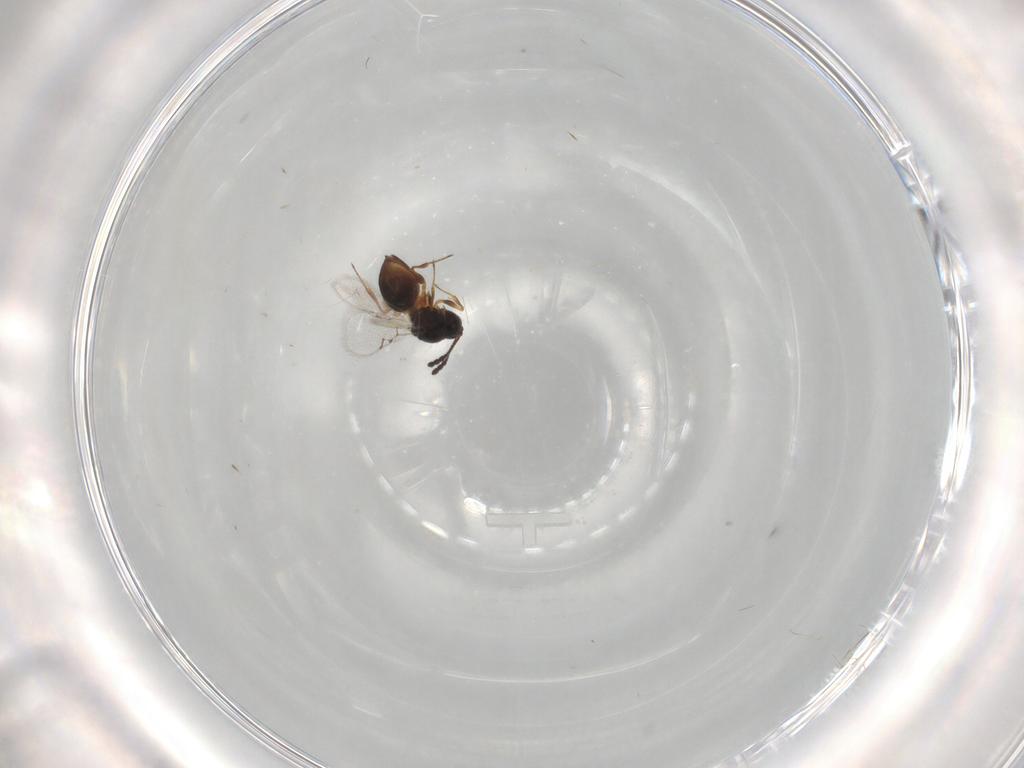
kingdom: Animalia
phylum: Arthropoda
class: Insecta
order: Hymenoptera
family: Figitidae
